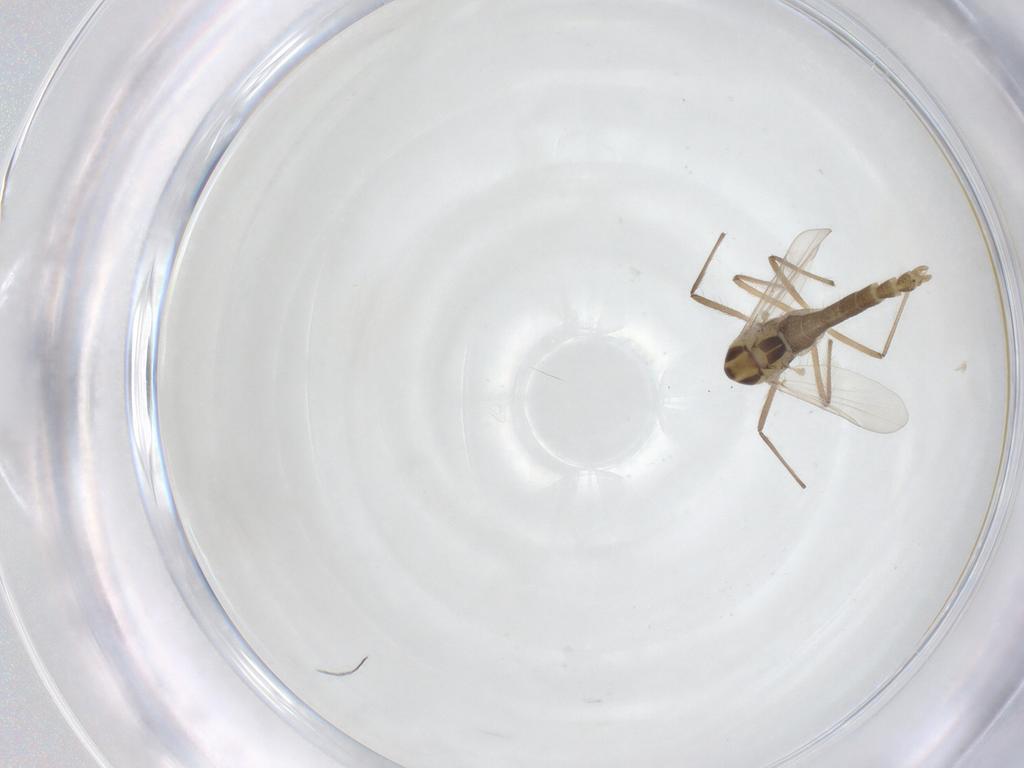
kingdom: Animalia
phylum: Arthropoda
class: Insecta
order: Diptera
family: Chironomidae
